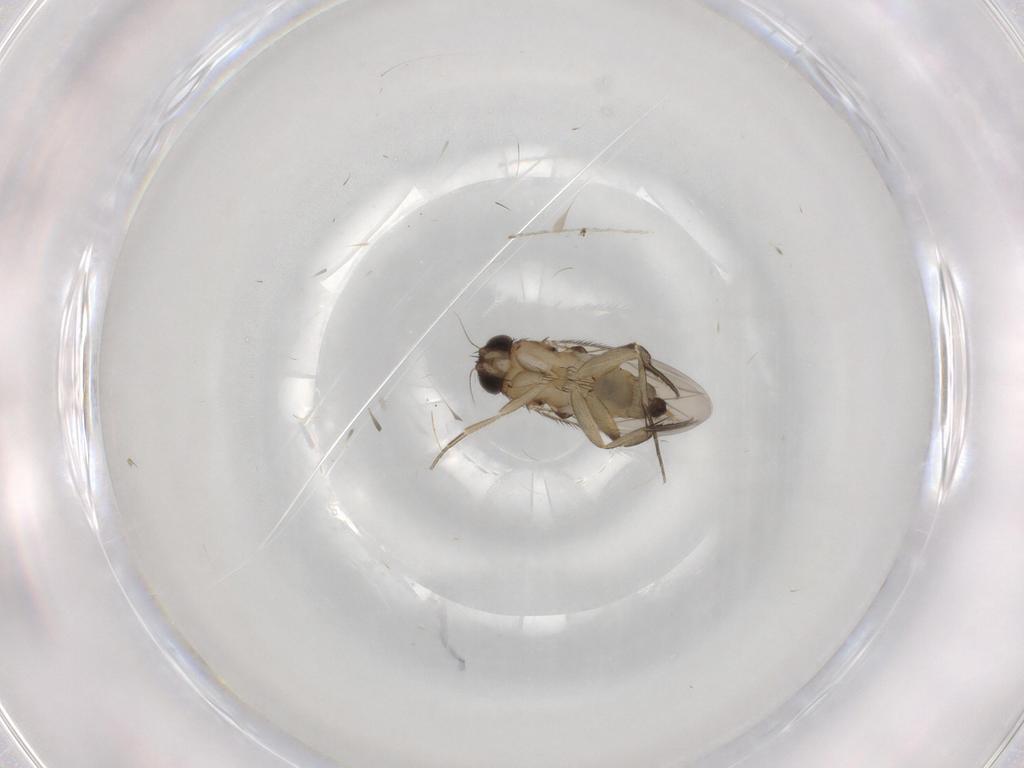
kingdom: Animalia
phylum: Arthropoda
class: Insecta
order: Diptera
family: Phoridae
